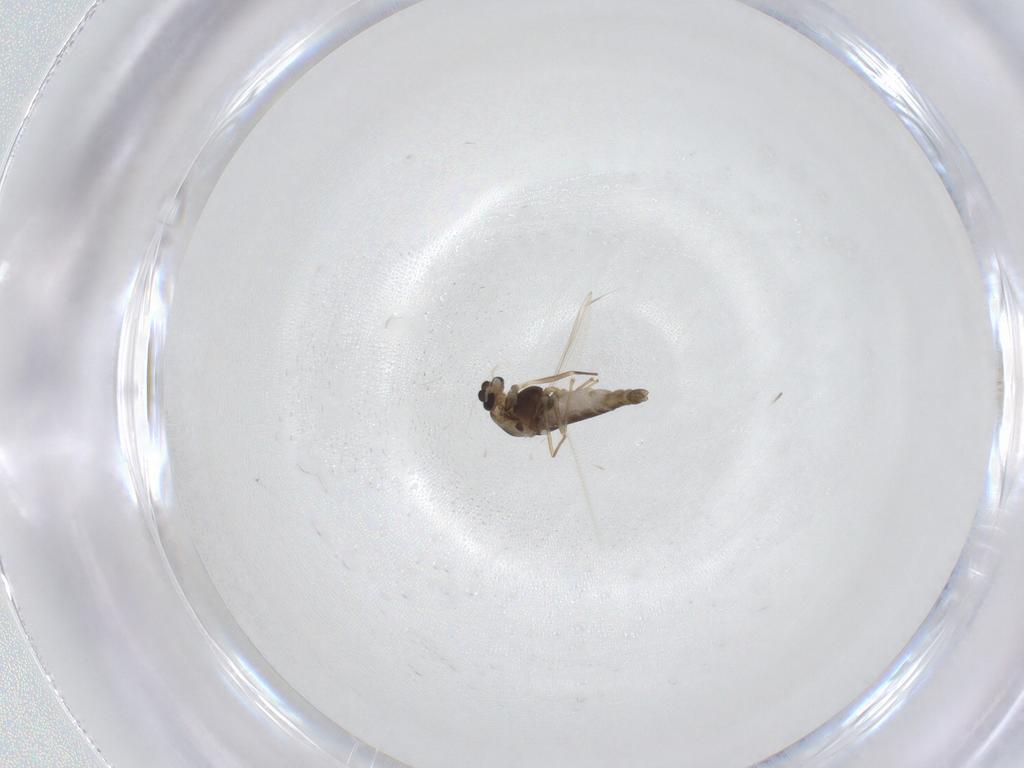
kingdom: Animalia
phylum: Arthropoda
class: Insecta
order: Diptera
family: Chironomidae
